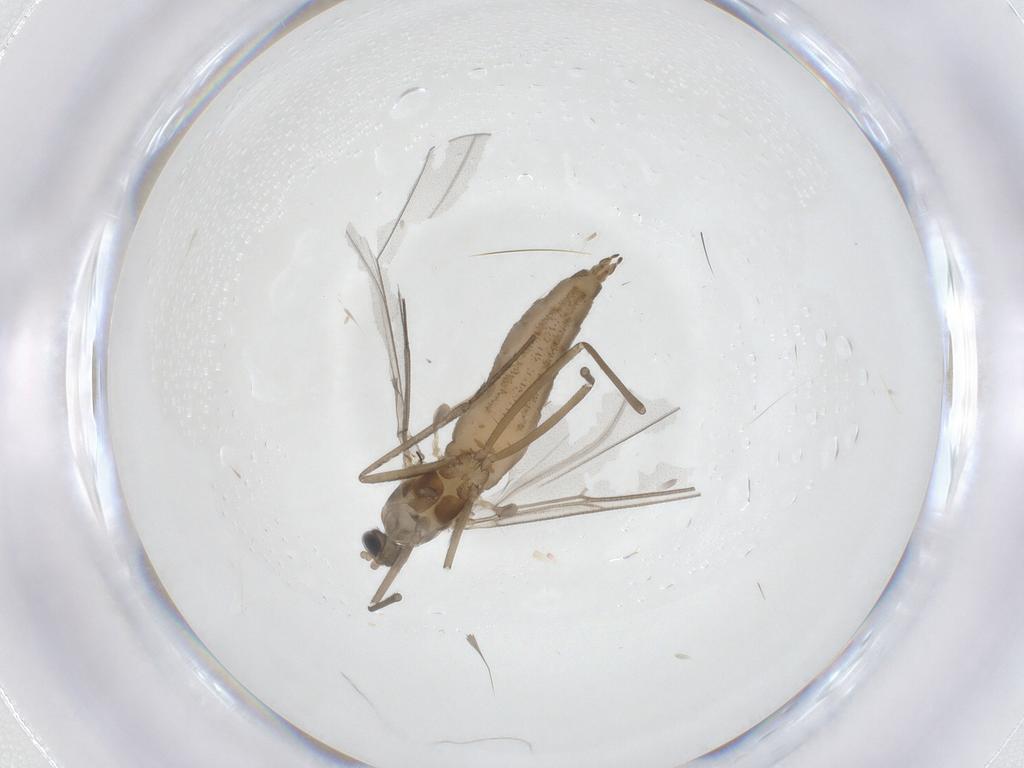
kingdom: Animalia
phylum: Arthropoda
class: Insecta
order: Diptera
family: Cecidomyiidae
